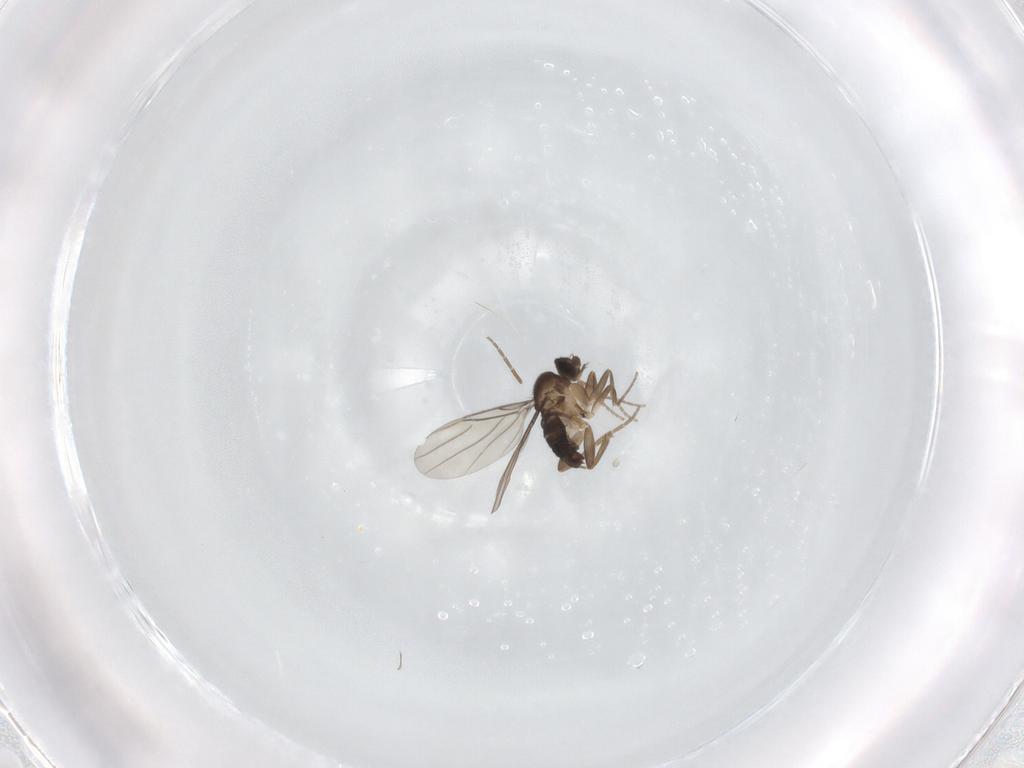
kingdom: Animalia
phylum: Arthropoda
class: Insecta
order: Diptera
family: Phoridae
